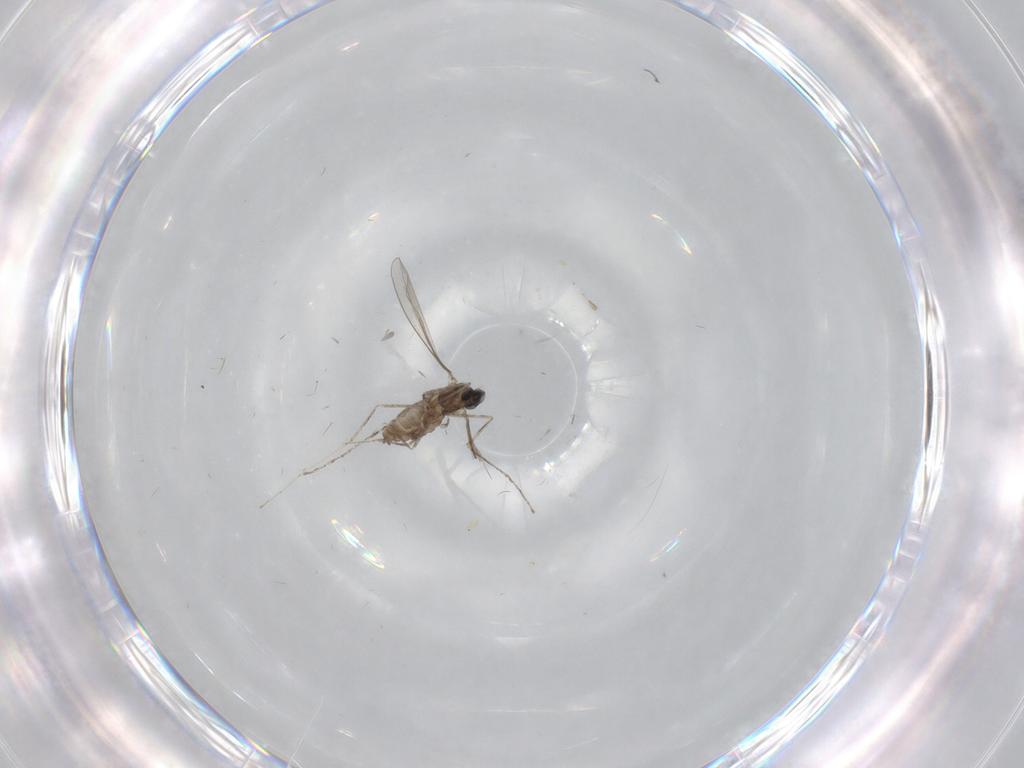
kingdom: Animalia
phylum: Arthropoda
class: Insecta
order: Diptera
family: Cecidomyiidae
